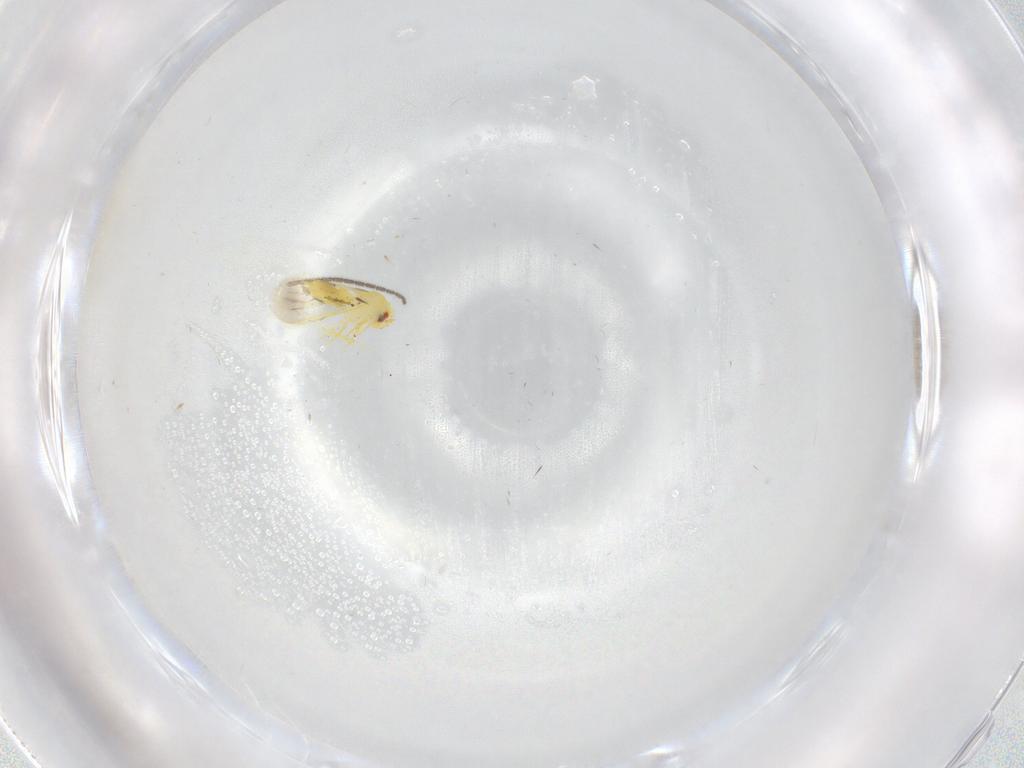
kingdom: Animalia
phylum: Arthropoda
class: Insecta
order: Hemiptera
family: Aleyrodidae
